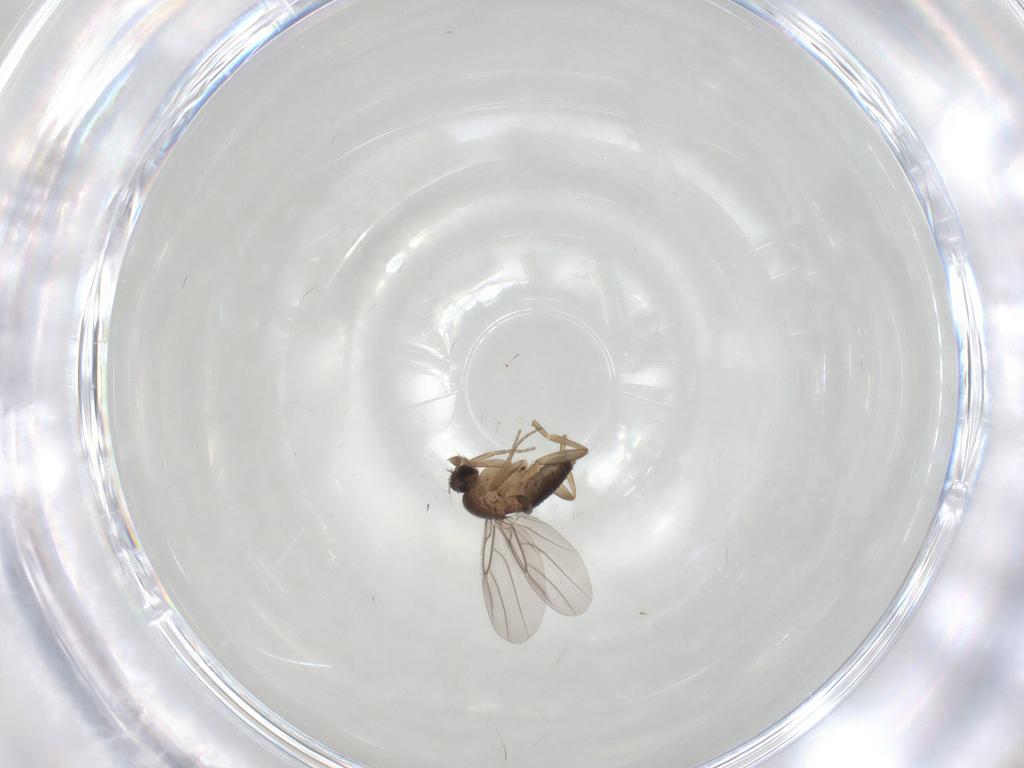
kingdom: Animalia
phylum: Arthropoda
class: Insecta
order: Diptera
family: Phoridae
